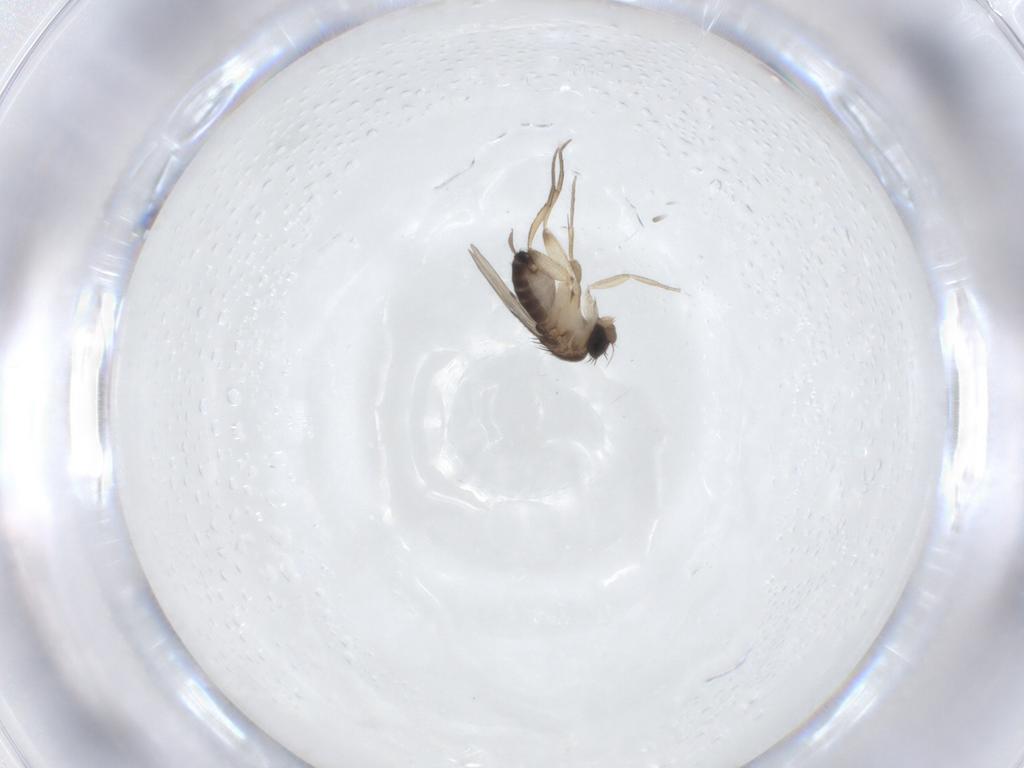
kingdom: Animalia
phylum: Arthropoda
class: Insecta
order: Diptera
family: Phoridae
